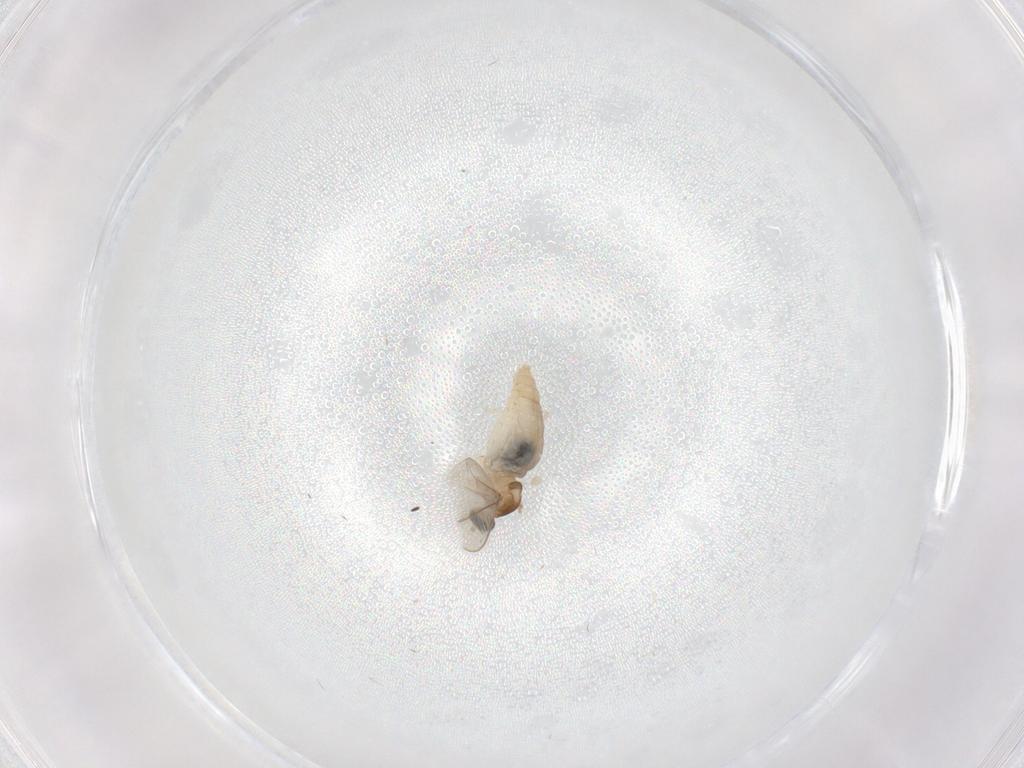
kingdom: Animalia
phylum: Arthropoda
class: Insecta
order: Diptera
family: Cecidomyiidae
